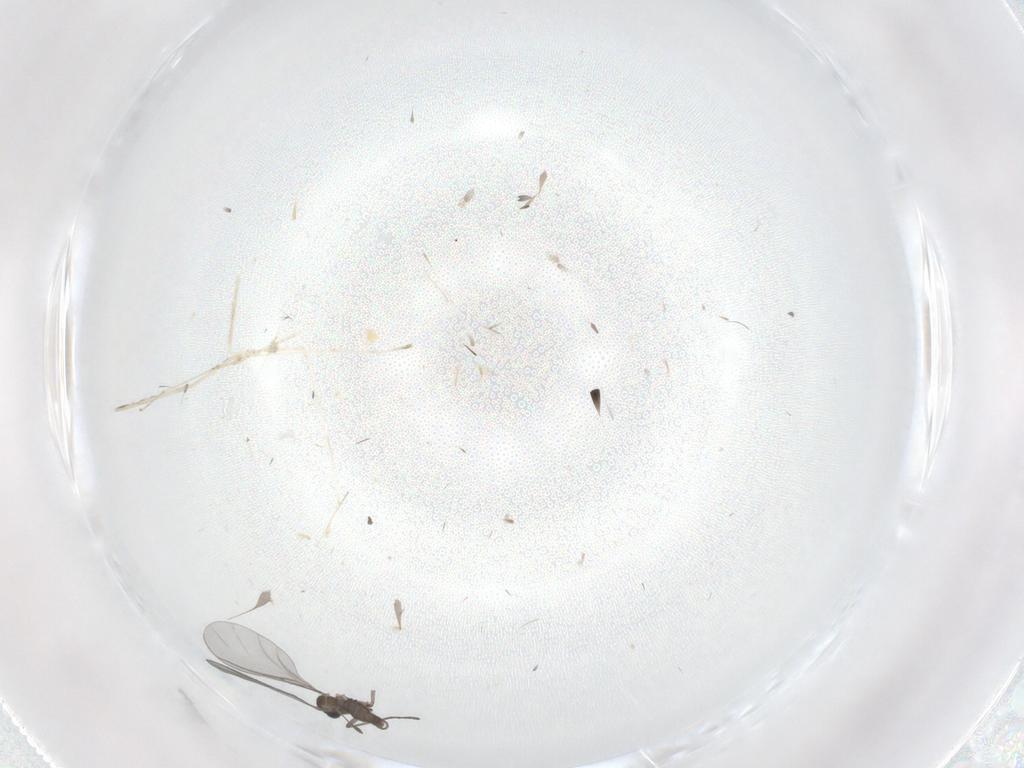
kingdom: Animalia
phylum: Arthropoda
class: Insecta
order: Diptera
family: Sciaridae
